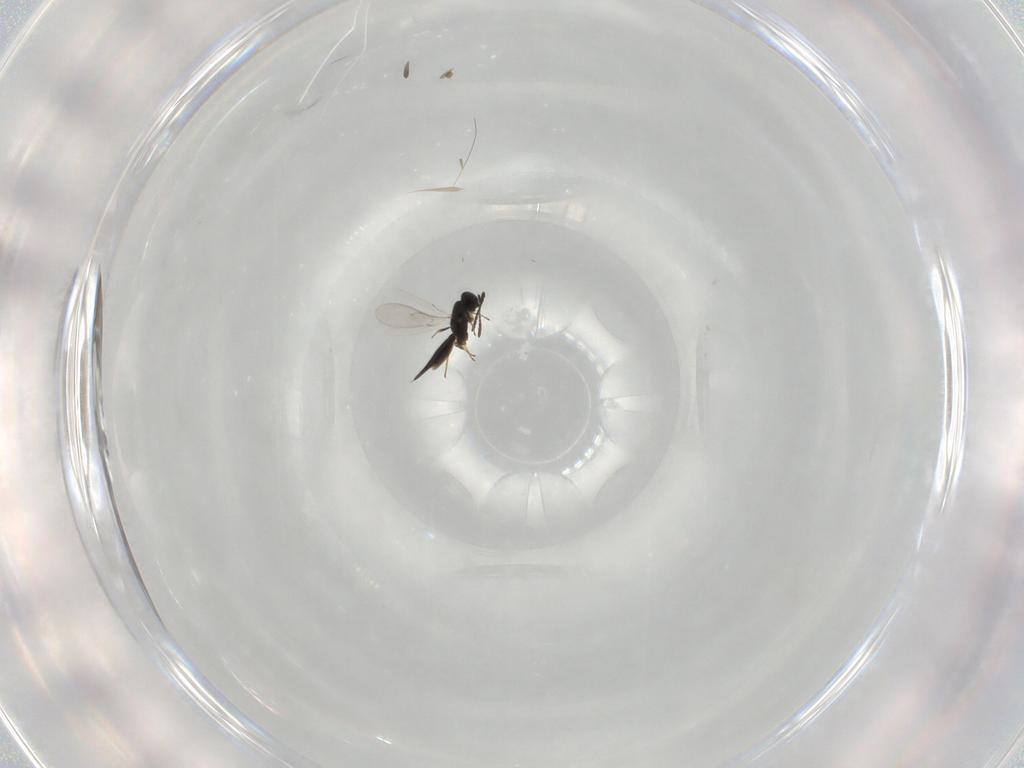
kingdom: Animalia
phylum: Arthropoda
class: Insecta
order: Hymenoptera
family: Scelionidae
